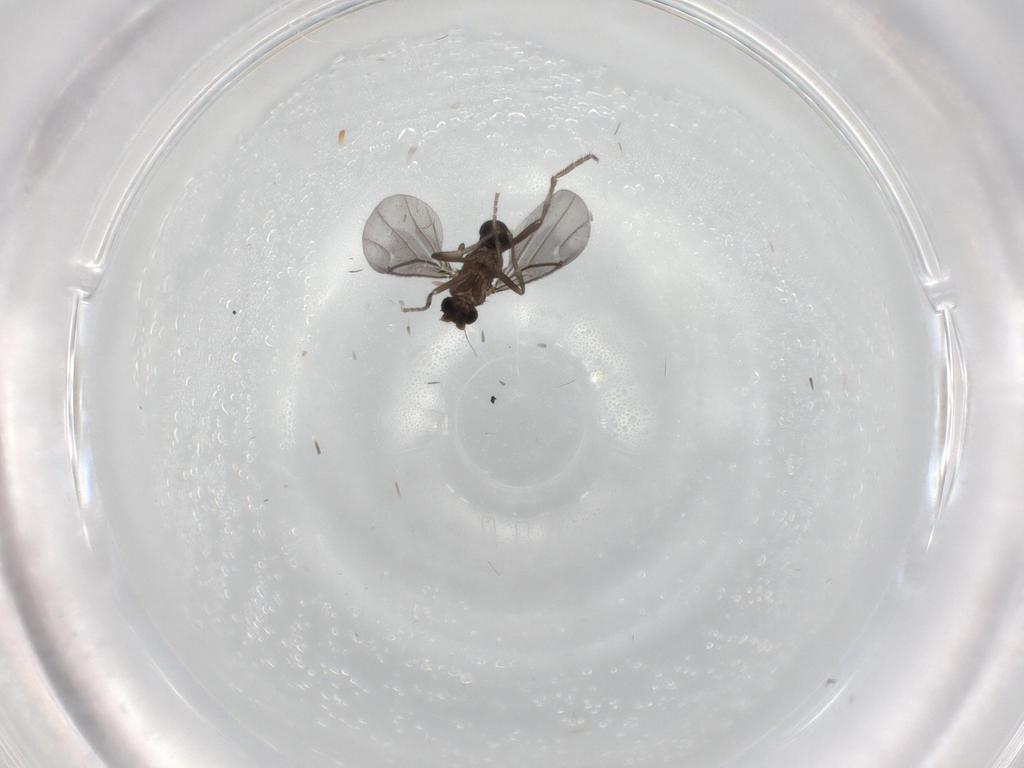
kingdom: Animalia
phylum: Arthropoda
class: Insecta
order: Diptera
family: Phoridae
